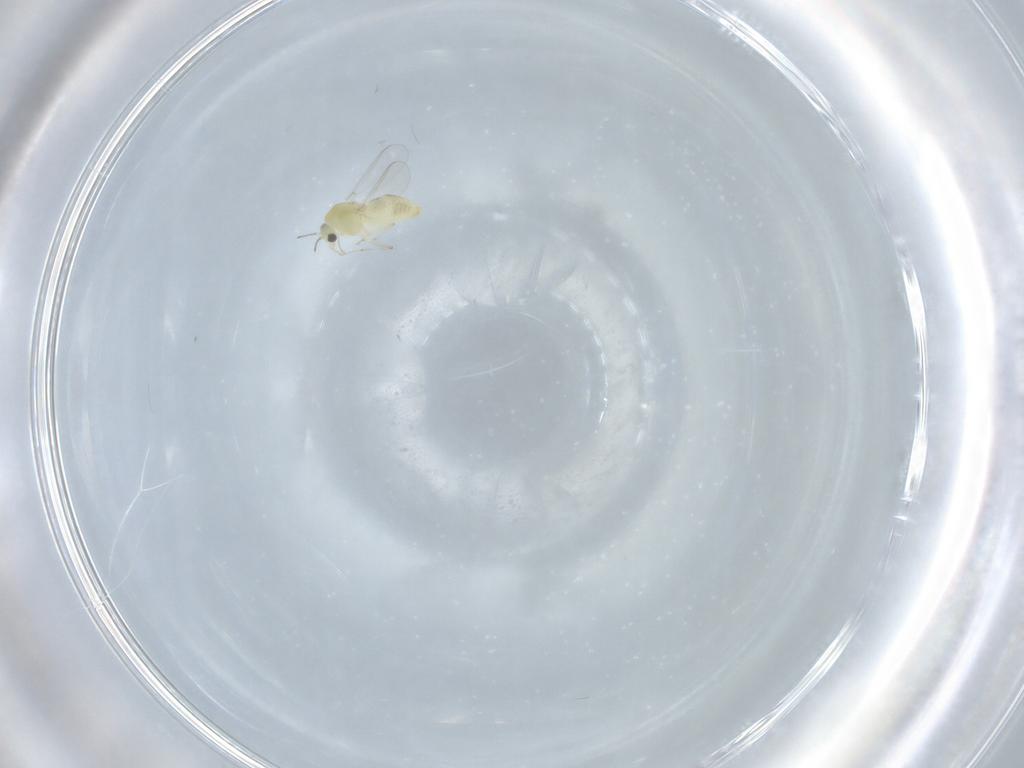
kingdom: Animalia
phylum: Arthropoda
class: Insecta
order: Diptera
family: Chironomidae
